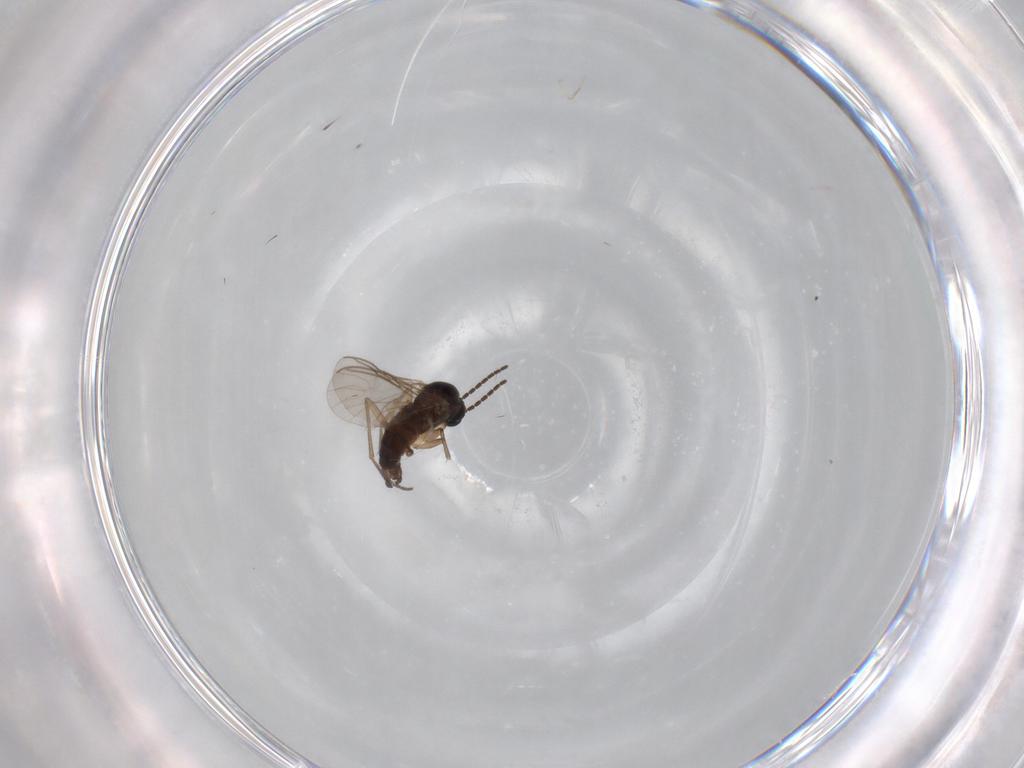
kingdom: Animalia
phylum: Arthropoda
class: Insecta
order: Diptera
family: Sciaridae
